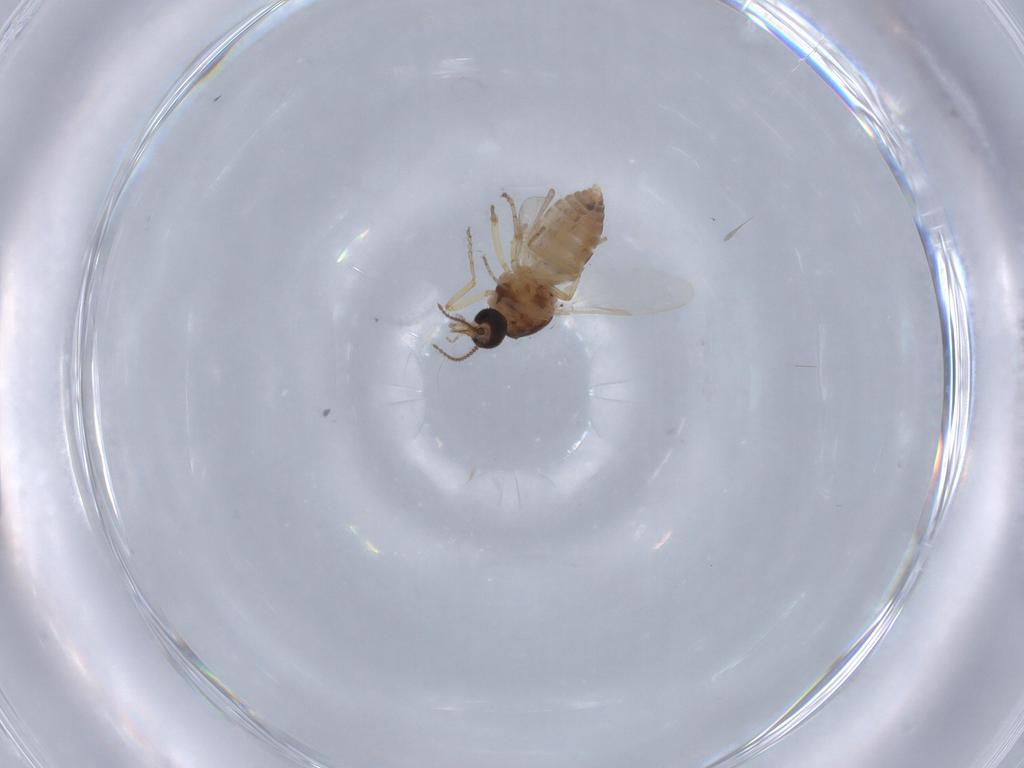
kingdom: Animalia
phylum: Arthropoda
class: Insecta
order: Diptera
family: Ceratopogonidae
